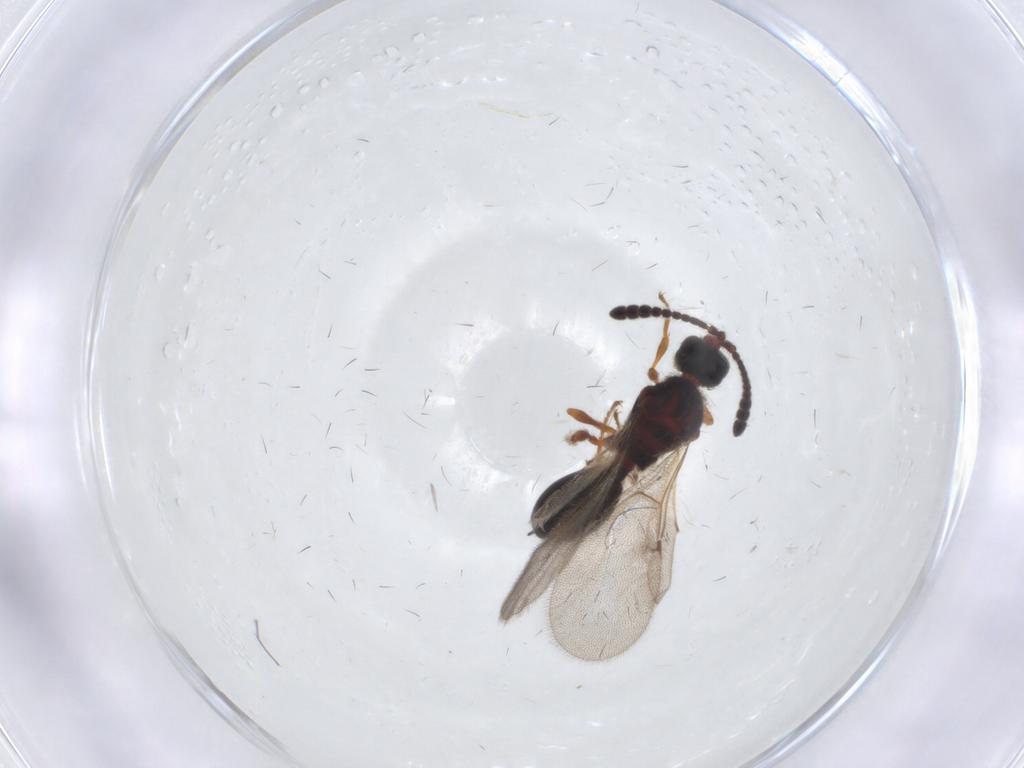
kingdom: Animalia
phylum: Arthropoda
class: Insecta
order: Hymenoptera
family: Diapriidae
